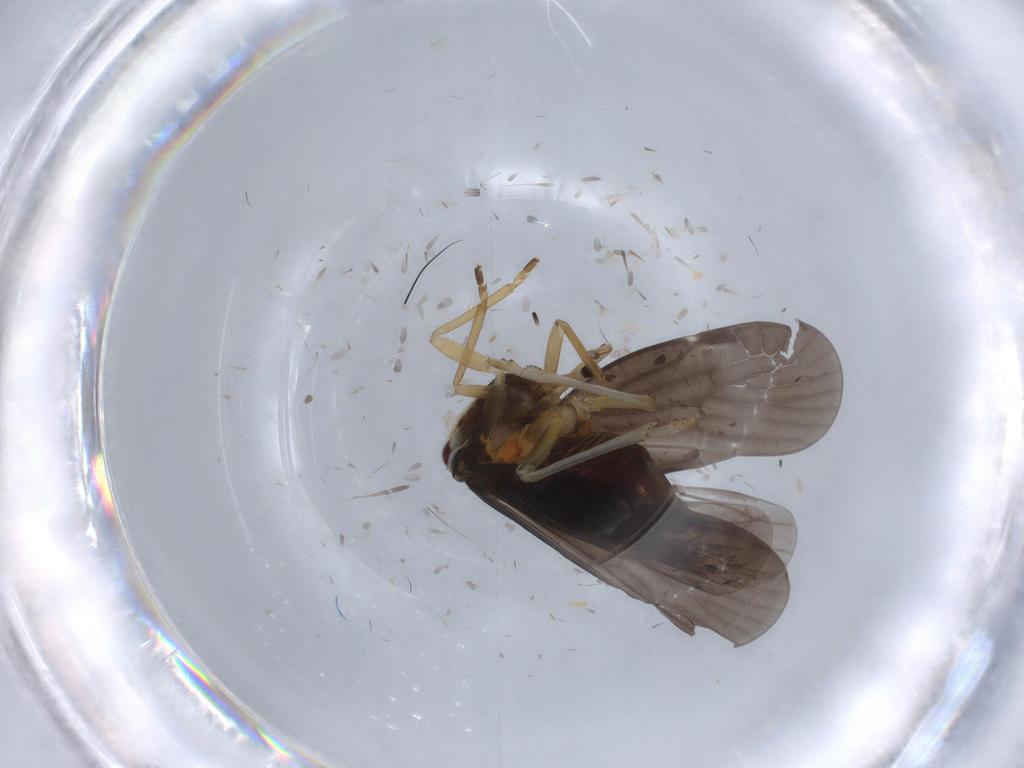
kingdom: Animalia
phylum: Arthropoda
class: Insecta
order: Hemiptera
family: Derbidae
